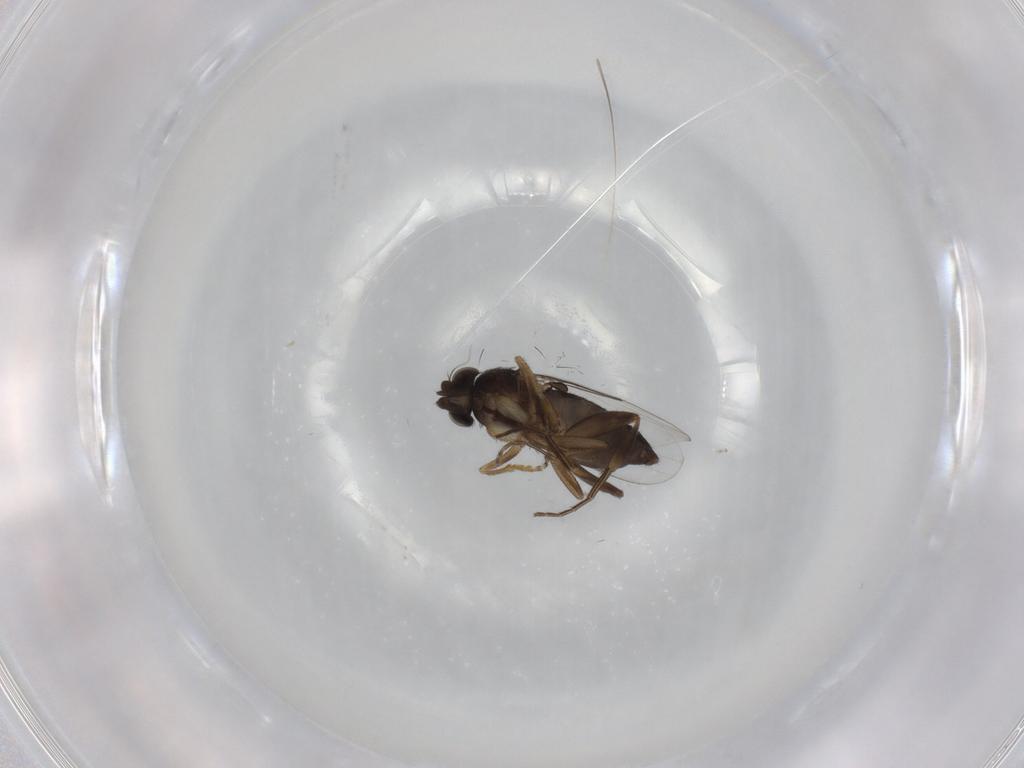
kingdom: Animalia
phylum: Arthropoda
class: Insecta
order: Diptera
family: Phoridae
